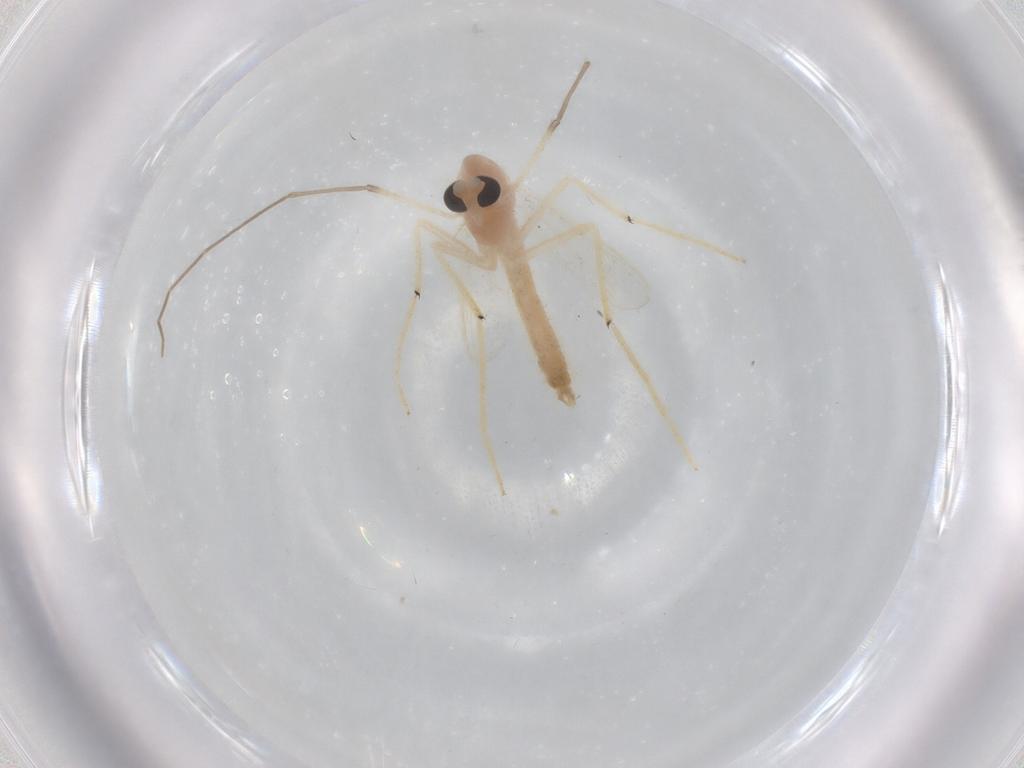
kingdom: Animalia
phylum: Arthropoda
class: Insecta
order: Diptera
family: Chironomidae
